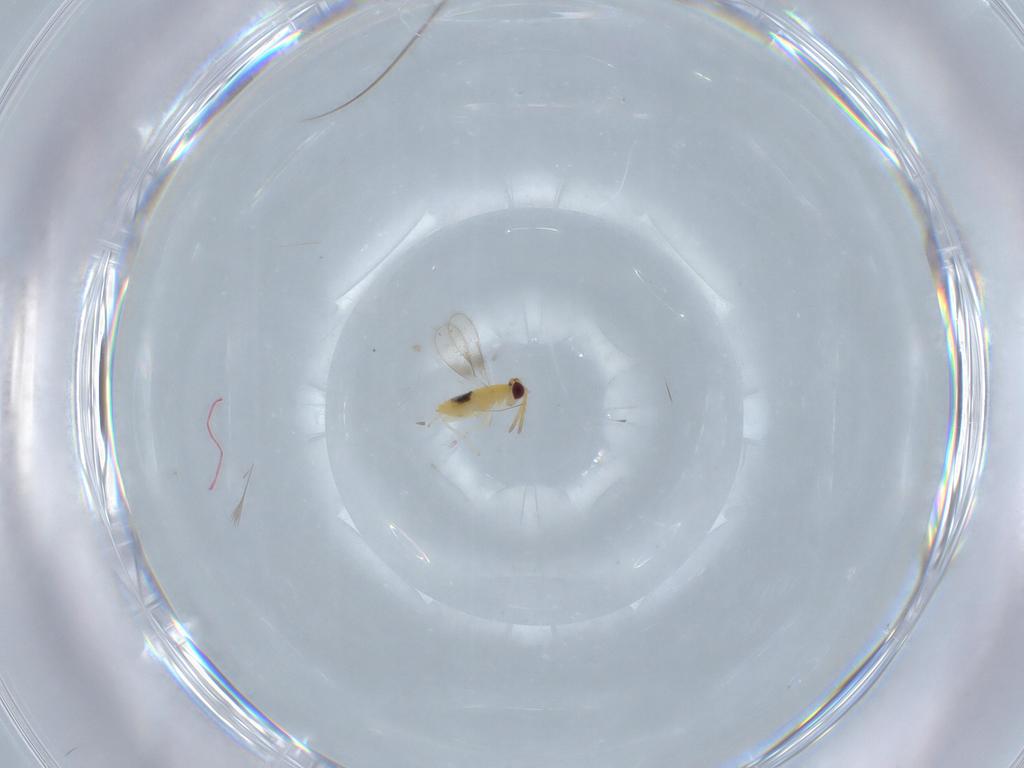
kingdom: Animalia
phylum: Arthropoda
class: Insecta
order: Hymenoptera
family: Aphelinidae
